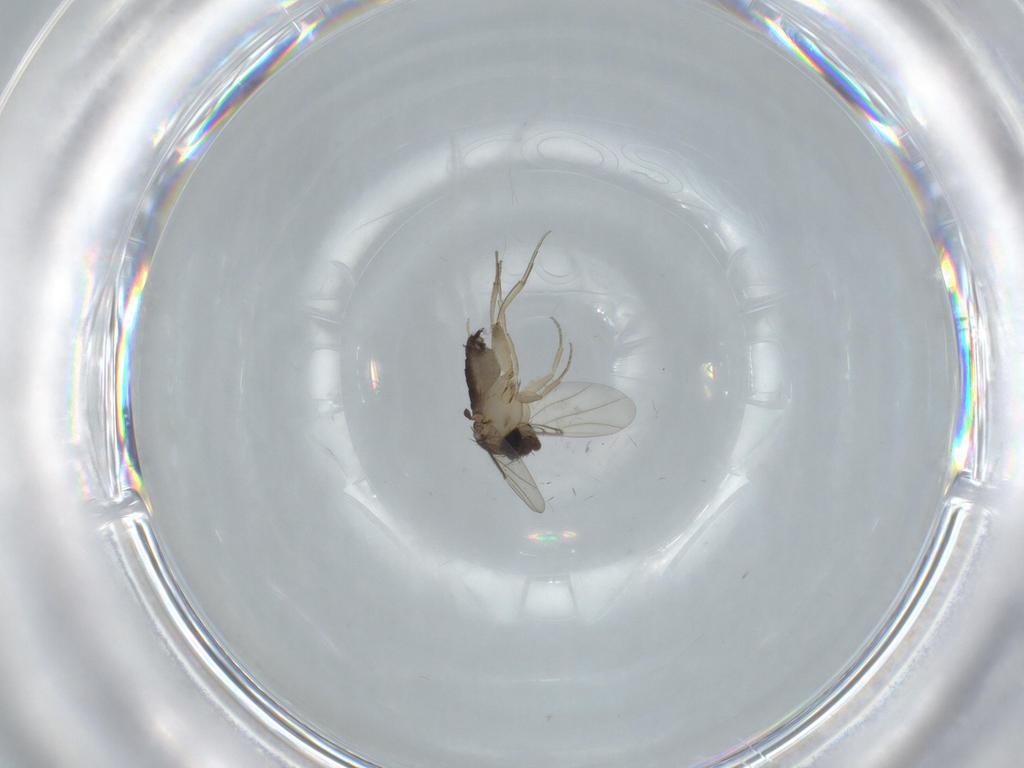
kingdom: Animalia
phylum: Arthropoda
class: Insecta
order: Diptera
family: Phoridae
